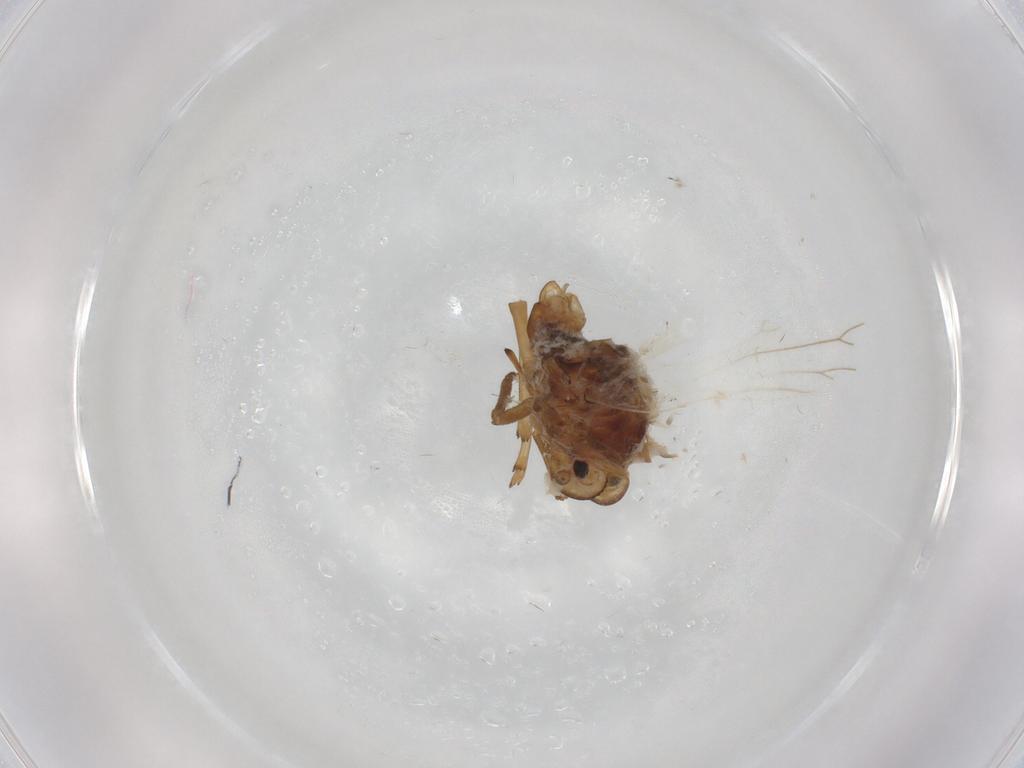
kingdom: Animalia
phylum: Arthropoda
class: Insecta
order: Hemiptera
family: Meenoplidae
